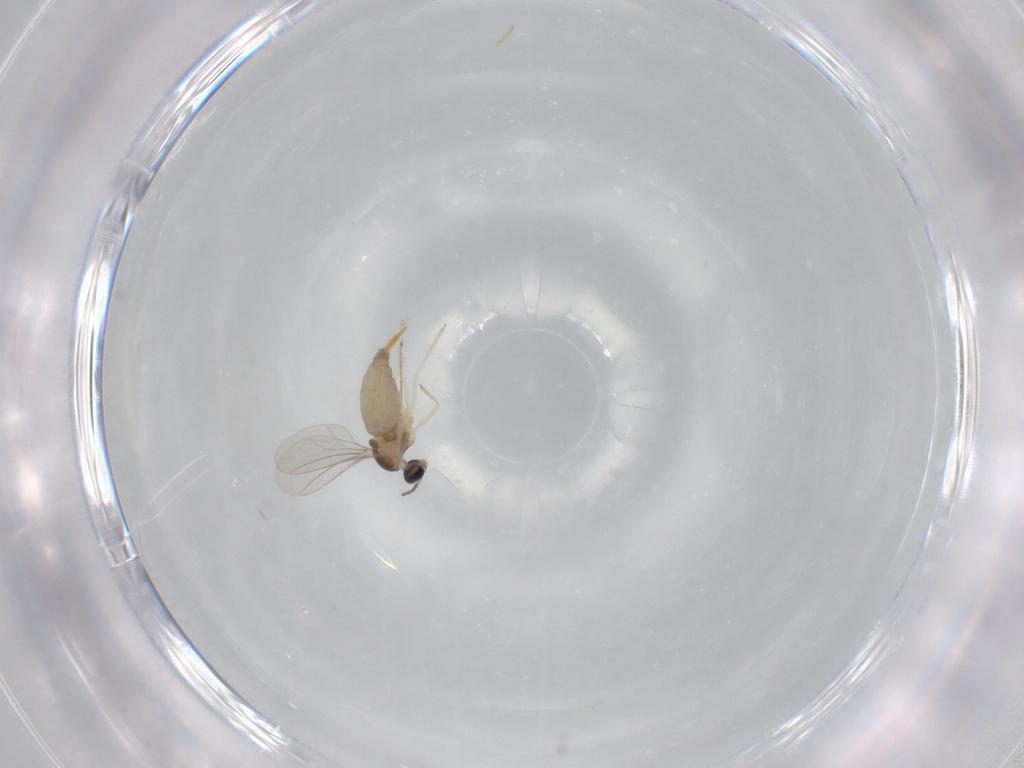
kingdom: Animalia
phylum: Arthropoda
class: Insecta
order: Diptera
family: Cecidomyiidae
